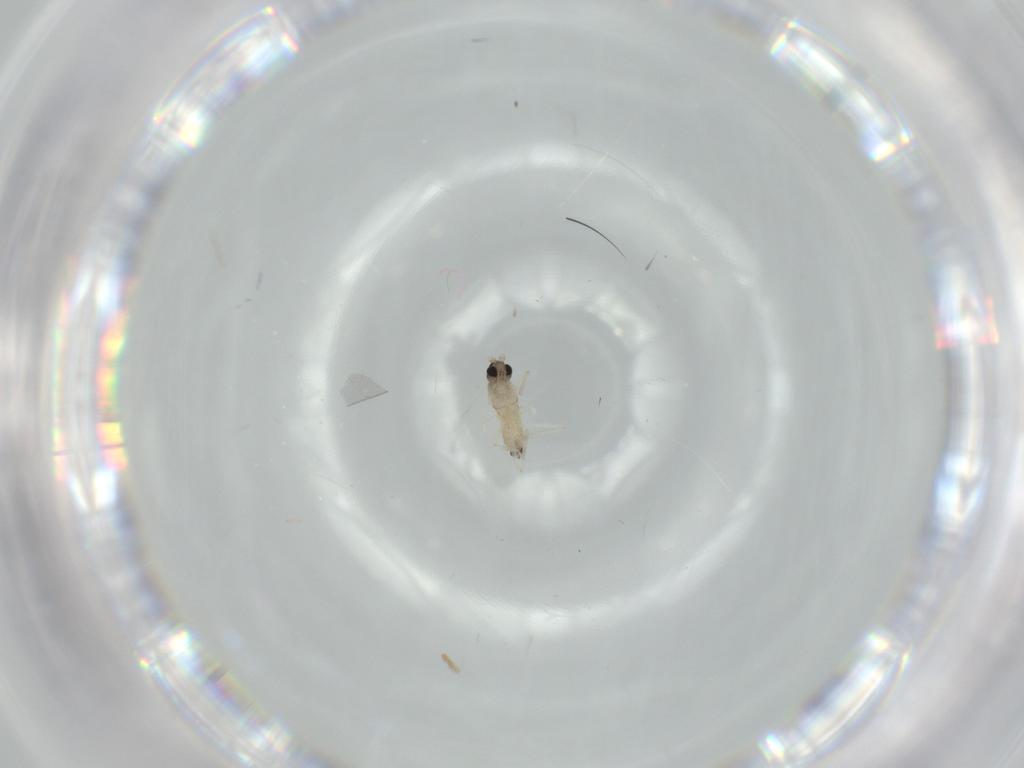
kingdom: Animalia
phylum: Arthropoda
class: Insecta
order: Diptera
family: Cecidomyiidae
